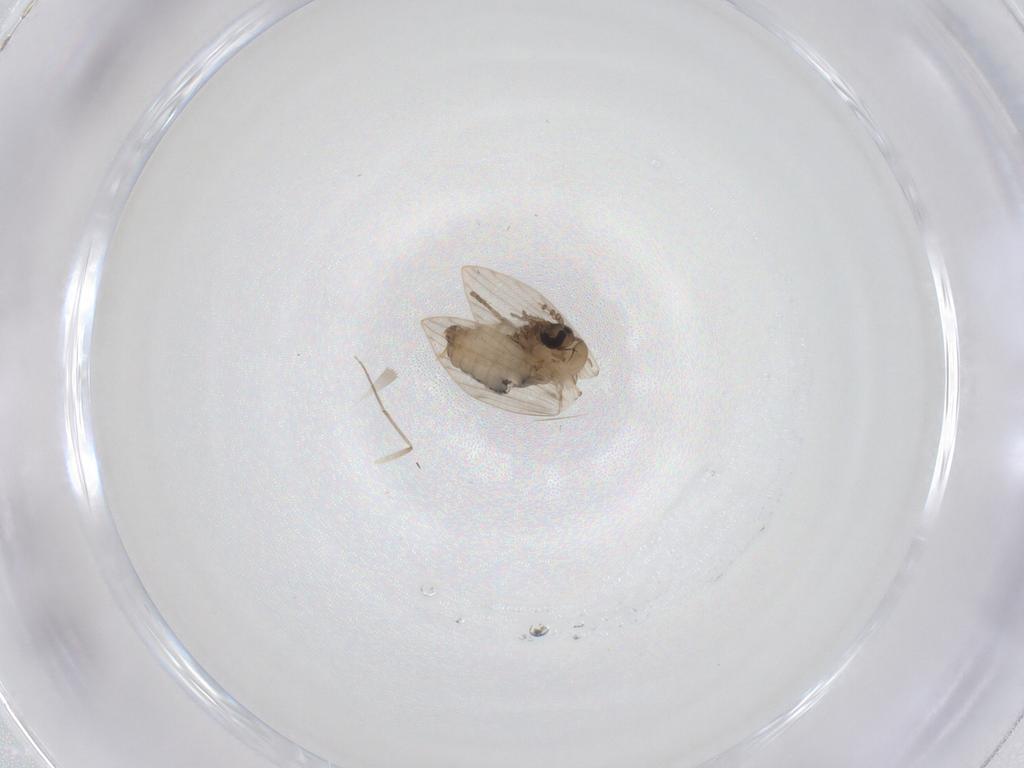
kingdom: Animalia
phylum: Arthropoda
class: Insecta
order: Diptera
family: Psychodidae
